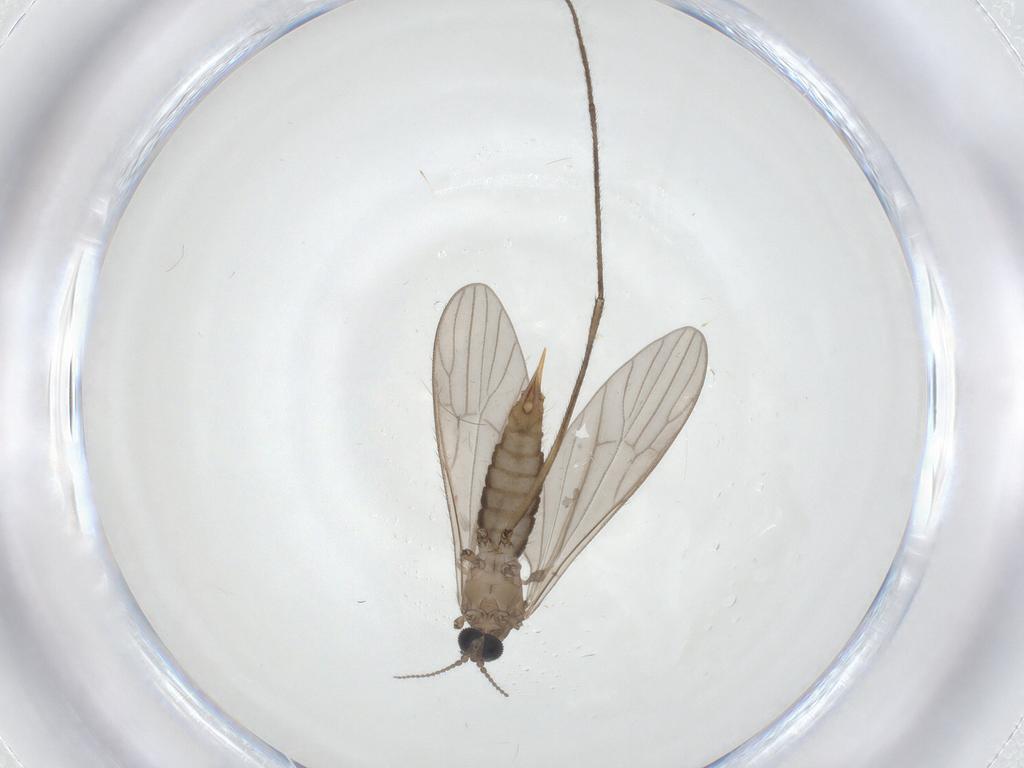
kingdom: Animalia
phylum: Arthropoda
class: Insecta
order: Diptera
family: Limoniidae
